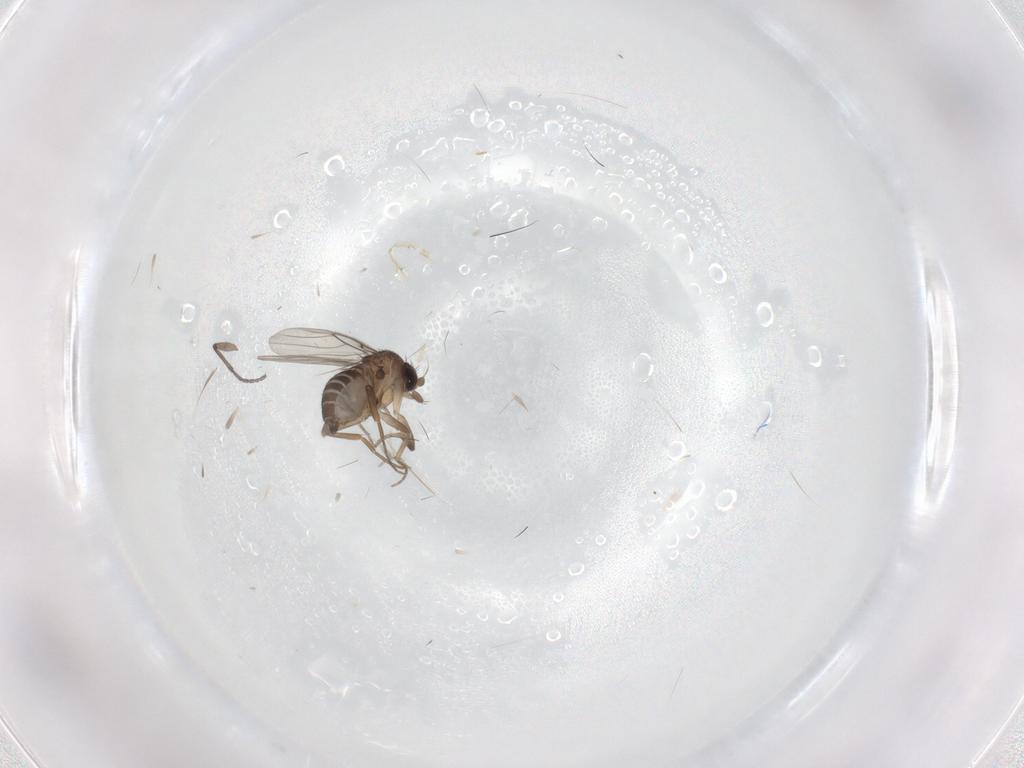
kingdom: Animalia
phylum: Arthropoda
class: Insecta
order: Diptera
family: Phoridae
